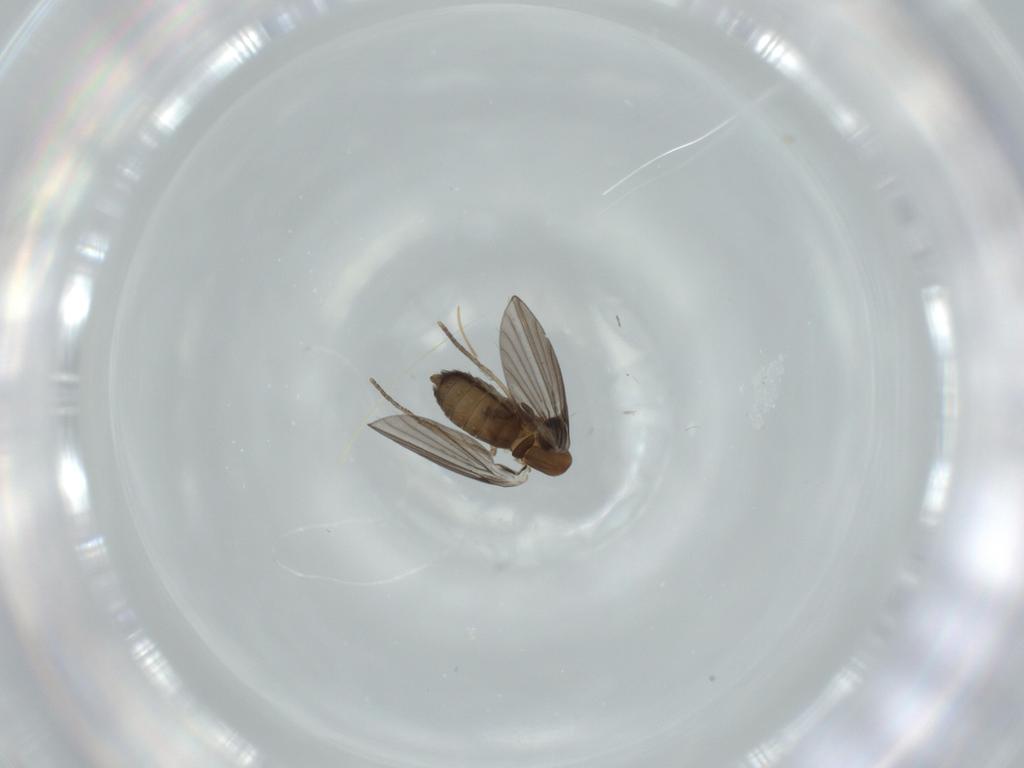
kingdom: Animalia
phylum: Arthropoda
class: Insecta
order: Diptera
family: Psychodidae
